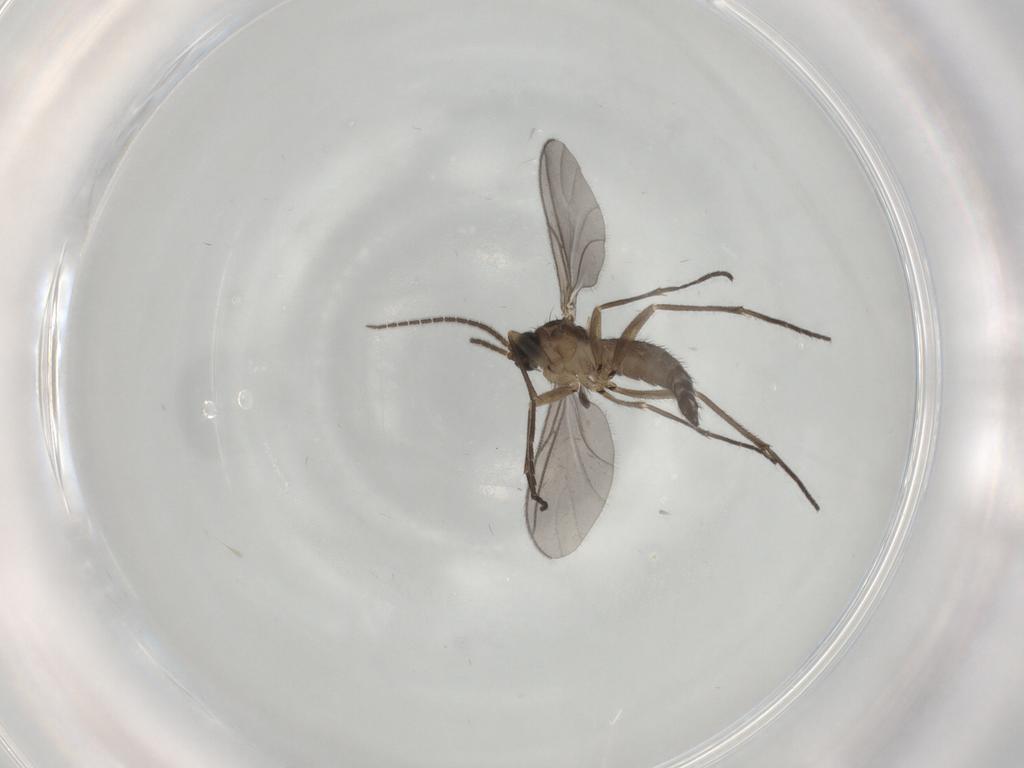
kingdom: Animalia
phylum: Arthropoda
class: Insecta
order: Diptera
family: Sciaridae
